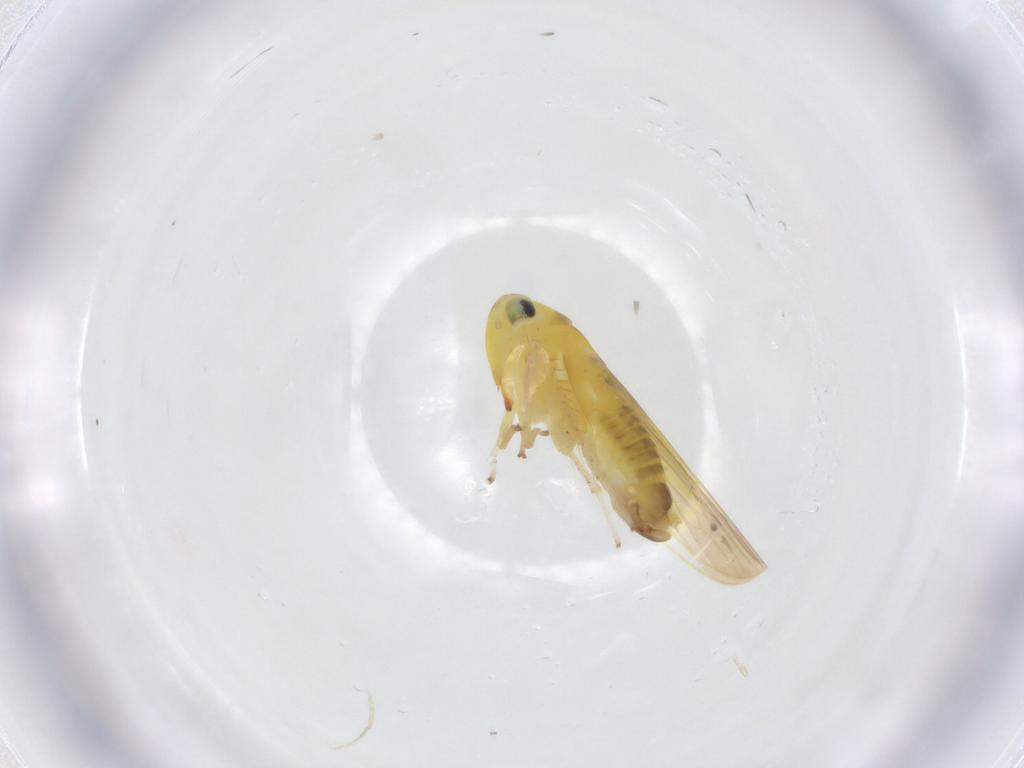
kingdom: Animalia
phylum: Arthropoda
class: Insecta
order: Hemiptera
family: Cicadellidae
